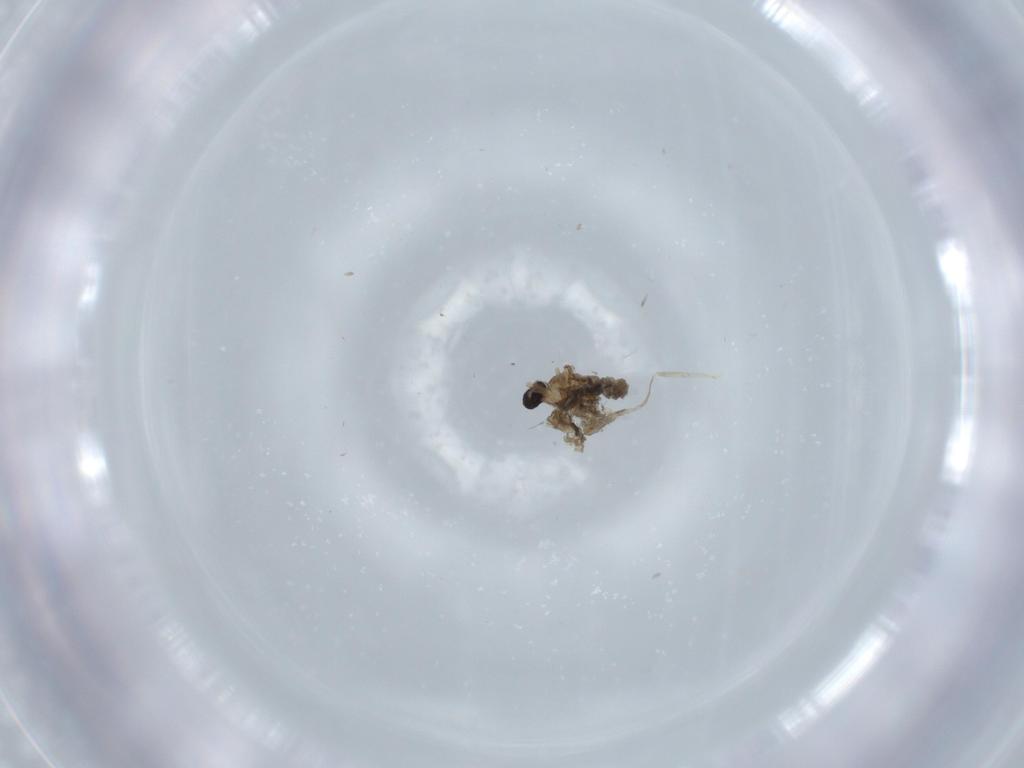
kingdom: Animalia
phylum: Arthropoda
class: Insecta
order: Diptera
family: Dolichopodidae
